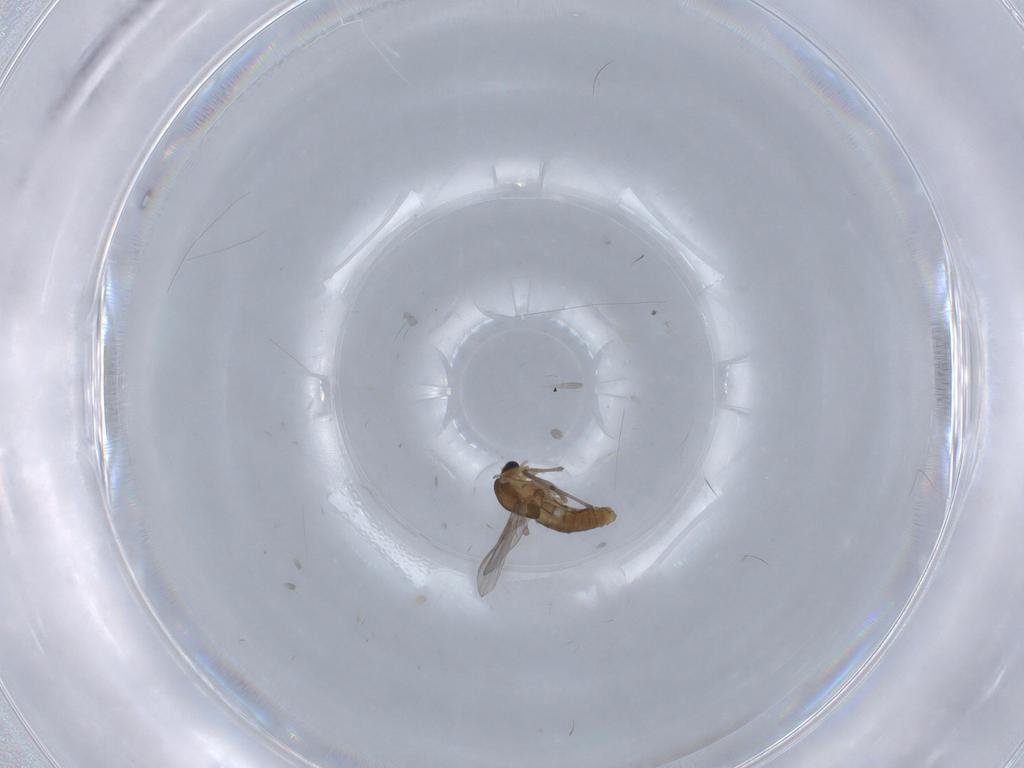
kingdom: Animalia
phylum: Arthropoda
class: Insecta
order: Diptera
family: Chironomidae
